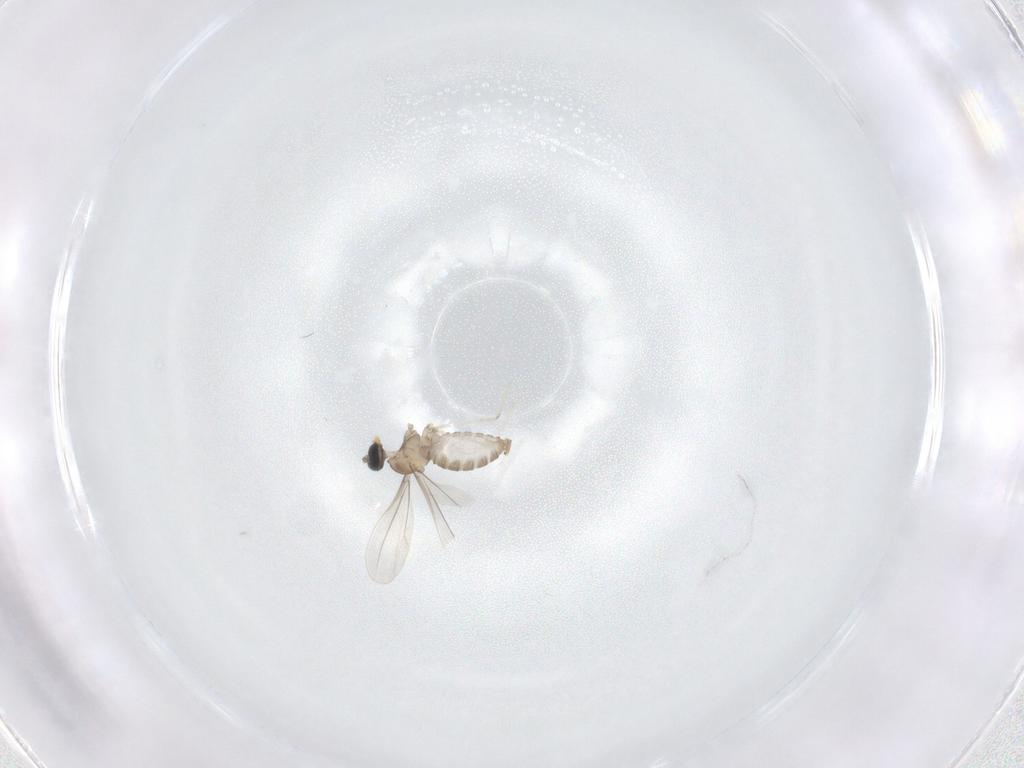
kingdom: Animalia
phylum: Arthropoda
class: Insecta
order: Diptera
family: Cecidomyiidae
